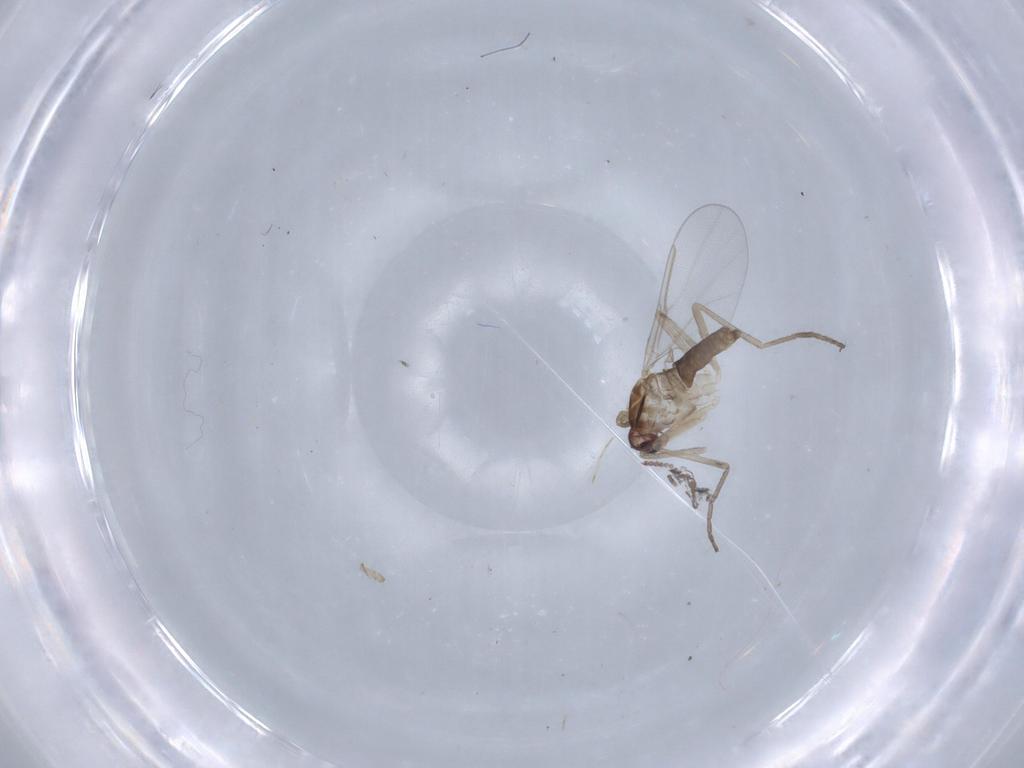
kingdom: Animalia
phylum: Arthropoda
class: Insecta
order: Diptera
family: Limoniidae
